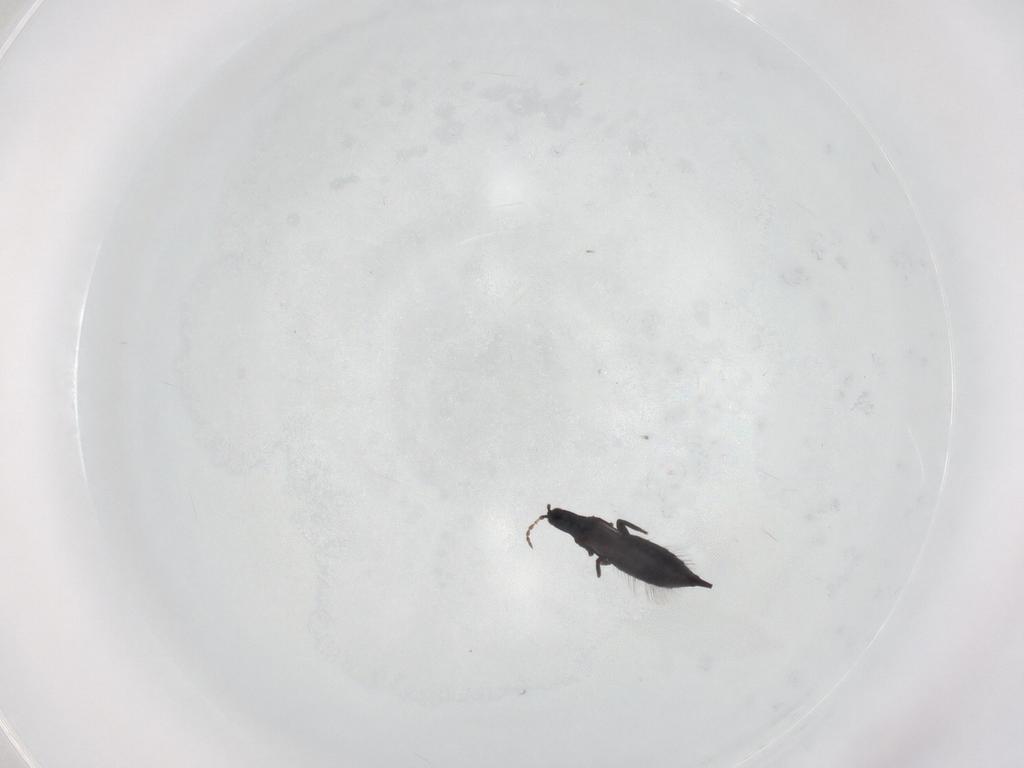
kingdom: Animalia
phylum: Arthropoda
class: Insecta
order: Thysanoptera
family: Phlaeothripidae
